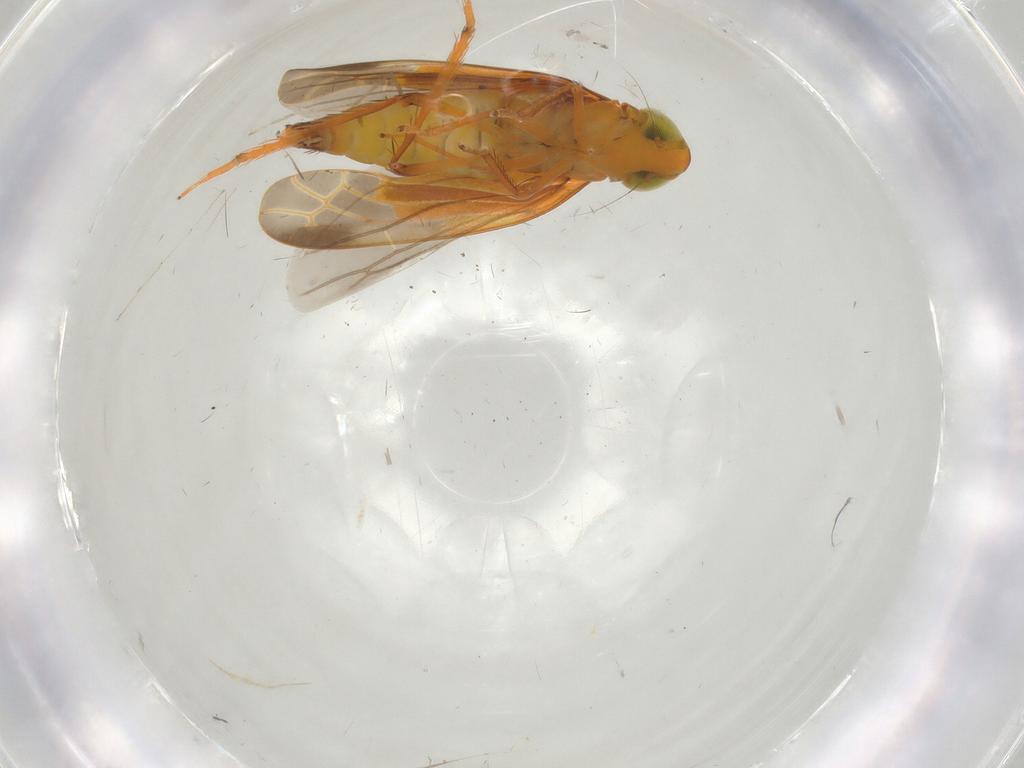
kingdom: Animalia
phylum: Arthropoda
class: Insecta
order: Hemiptera
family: Cicadellidae
